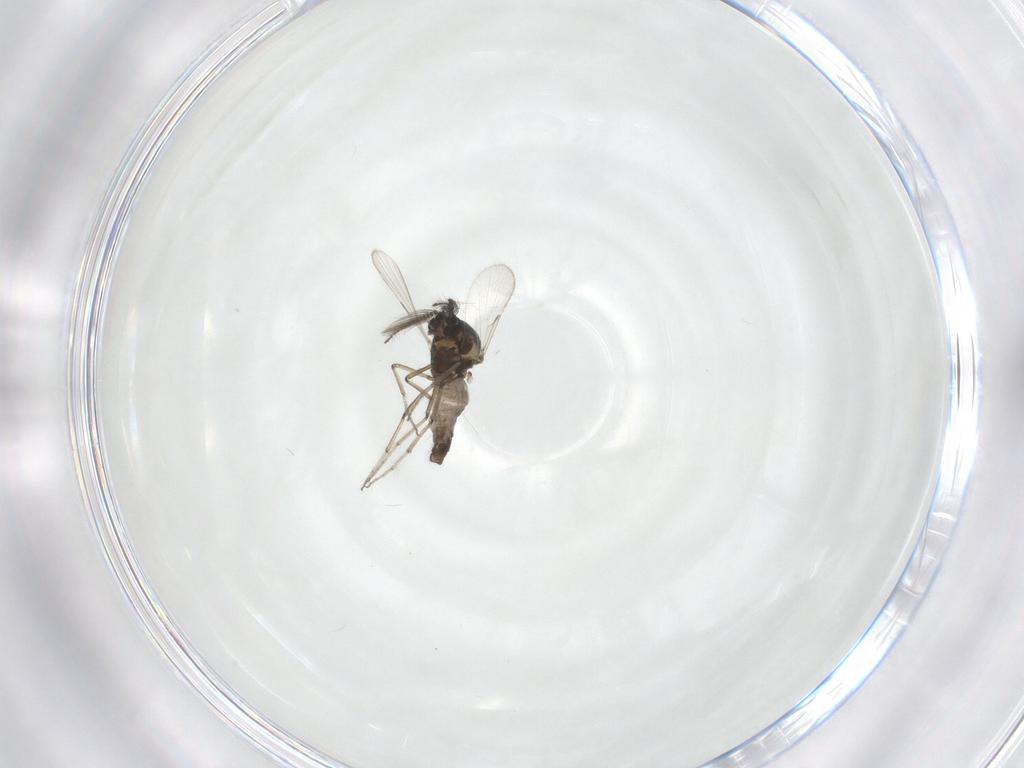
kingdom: Animalia
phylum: Arthropoda
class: Insecta
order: Diptera
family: Ceratopogonidae
